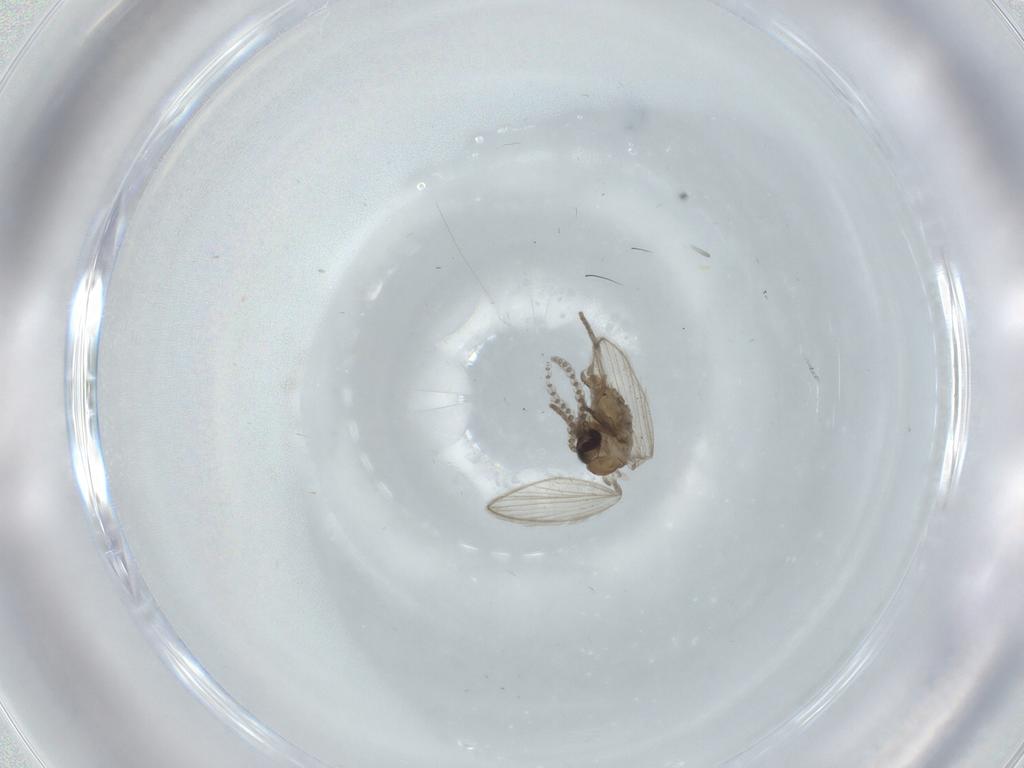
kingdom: Animalia
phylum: Arthropoda
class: Insecta
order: Diptera
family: Psychodidae
